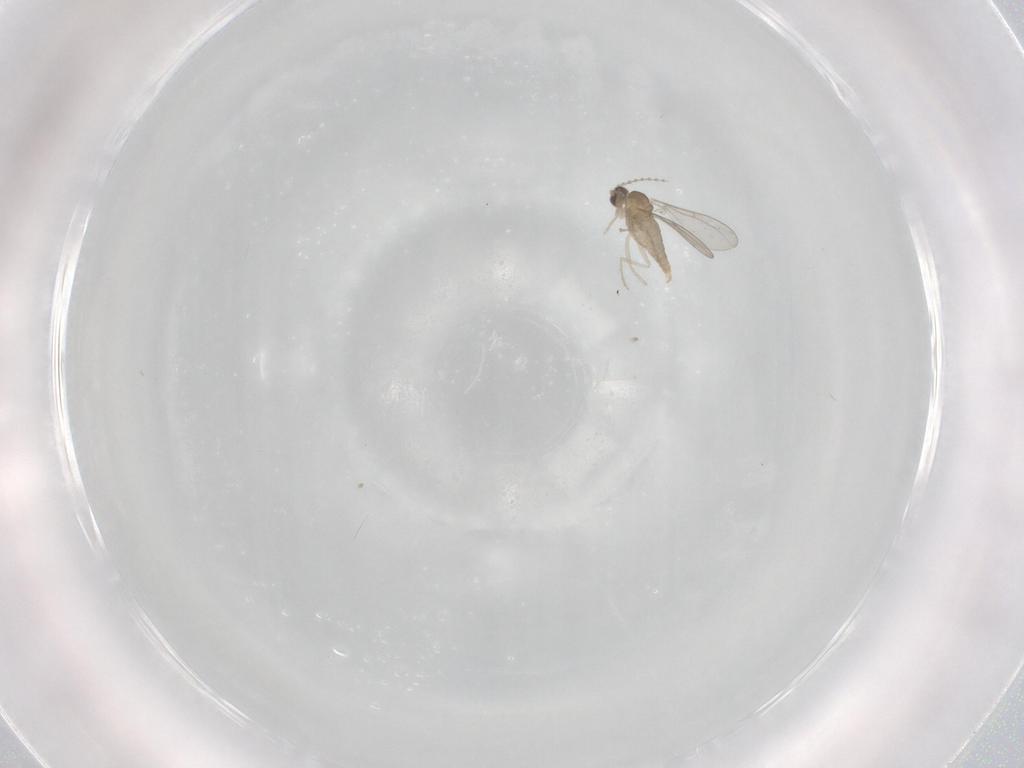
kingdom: Animalia
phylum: Arthropoda
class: Insecta
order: Diptera
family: Cecidomyiidae
